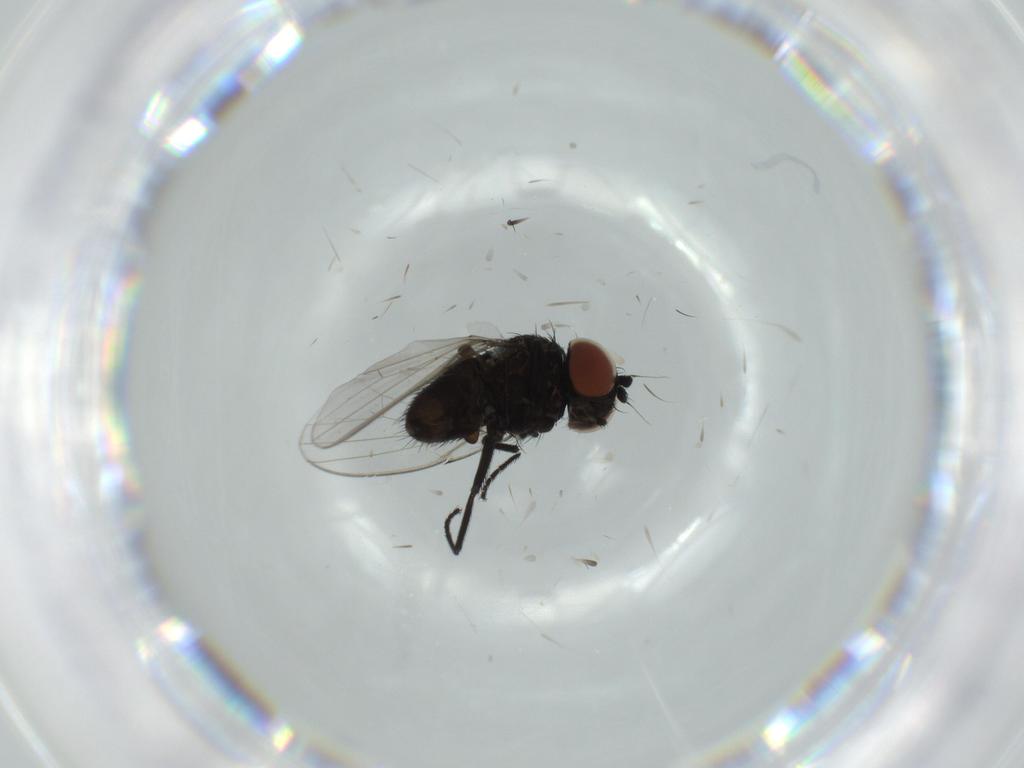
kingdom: Animalia
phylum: Arthropoda
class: Insecta
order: Diptera
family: Milichiidae
